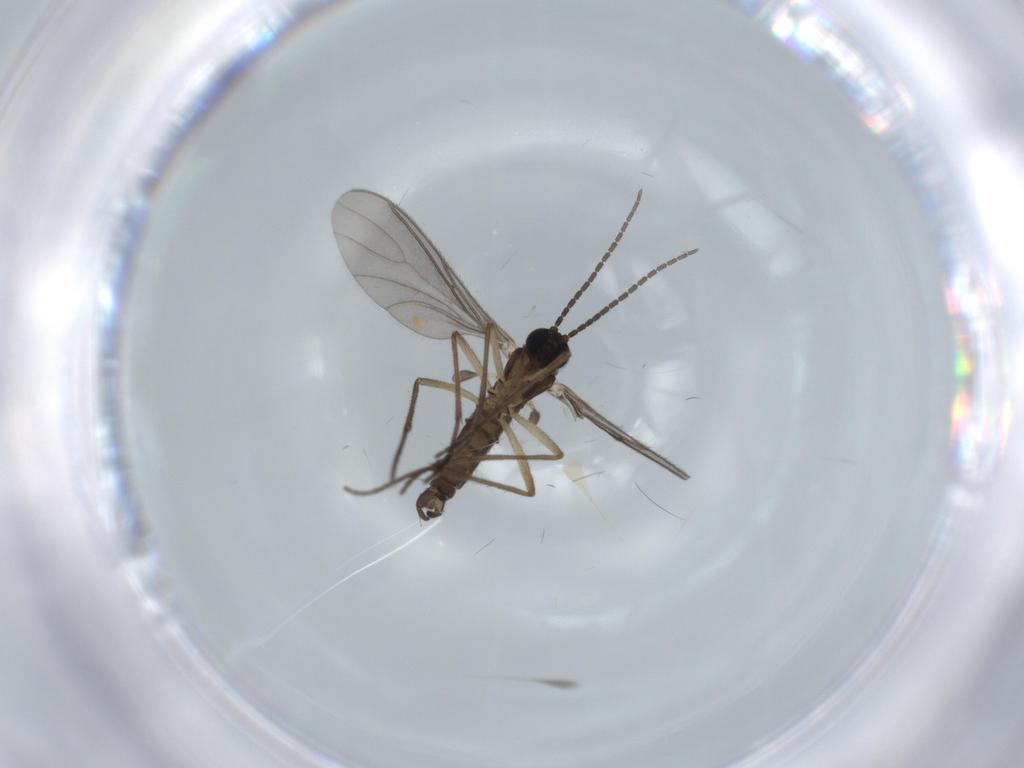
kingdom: Animalia
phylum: Arthropoda
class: Insecta
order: Diptera
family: Sciaridae
